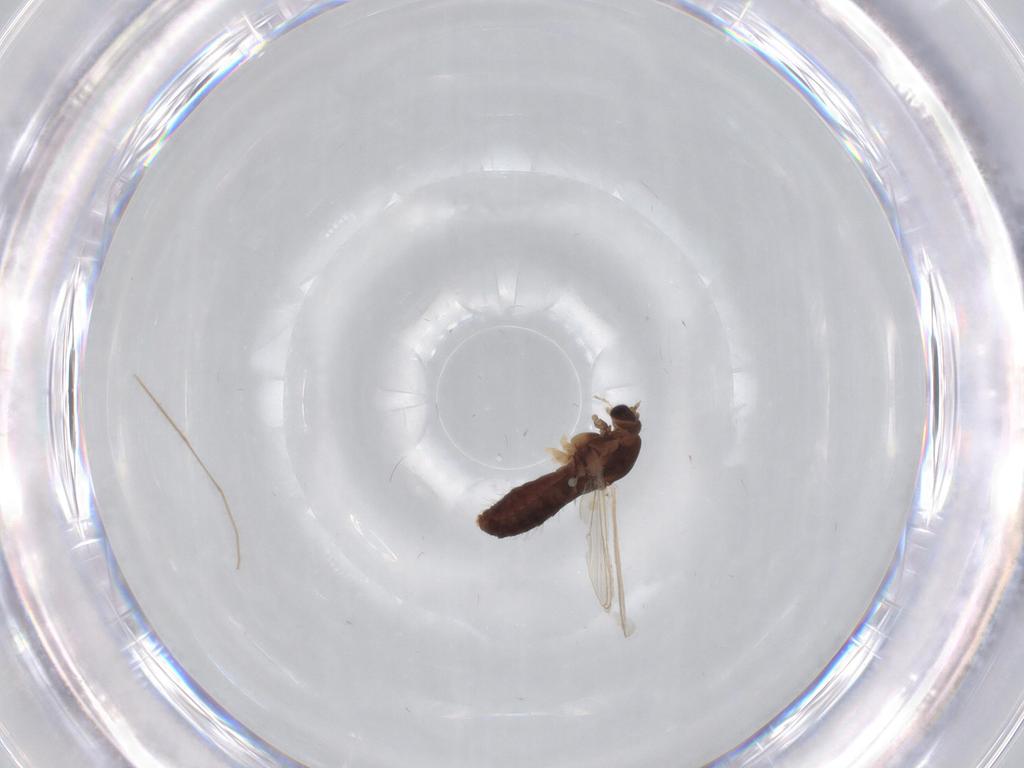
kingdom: Animalia
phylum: Arthropoda
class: Insecta
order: Diptera
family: Chironomidae
